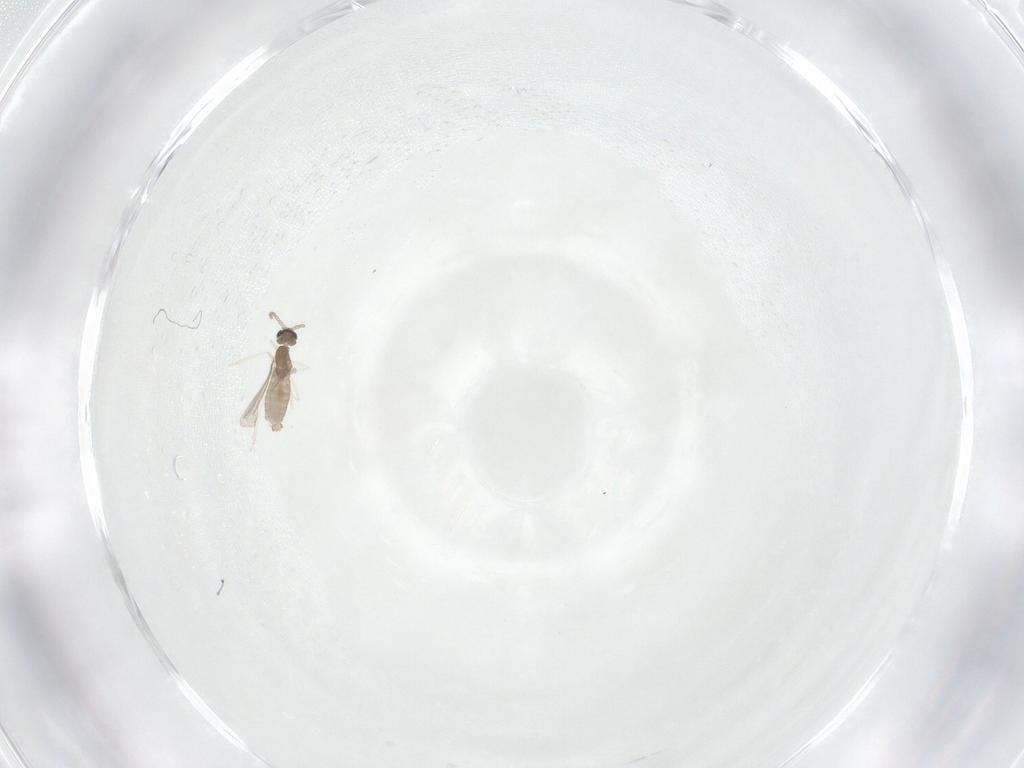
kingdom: Animalia
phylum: Arthropoda
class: Insecta
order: Diptera
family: Cecidomyiidae
